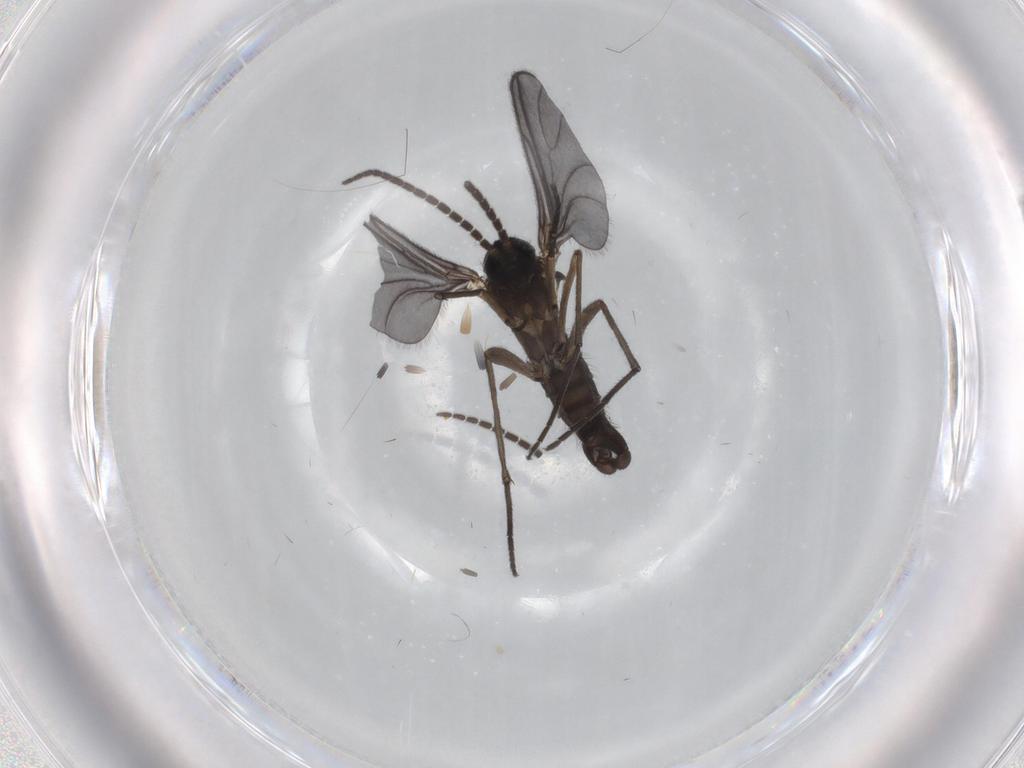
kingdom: Animalia
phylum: Arthropoda
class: Insecta
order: Diptera
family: Sciaridae
